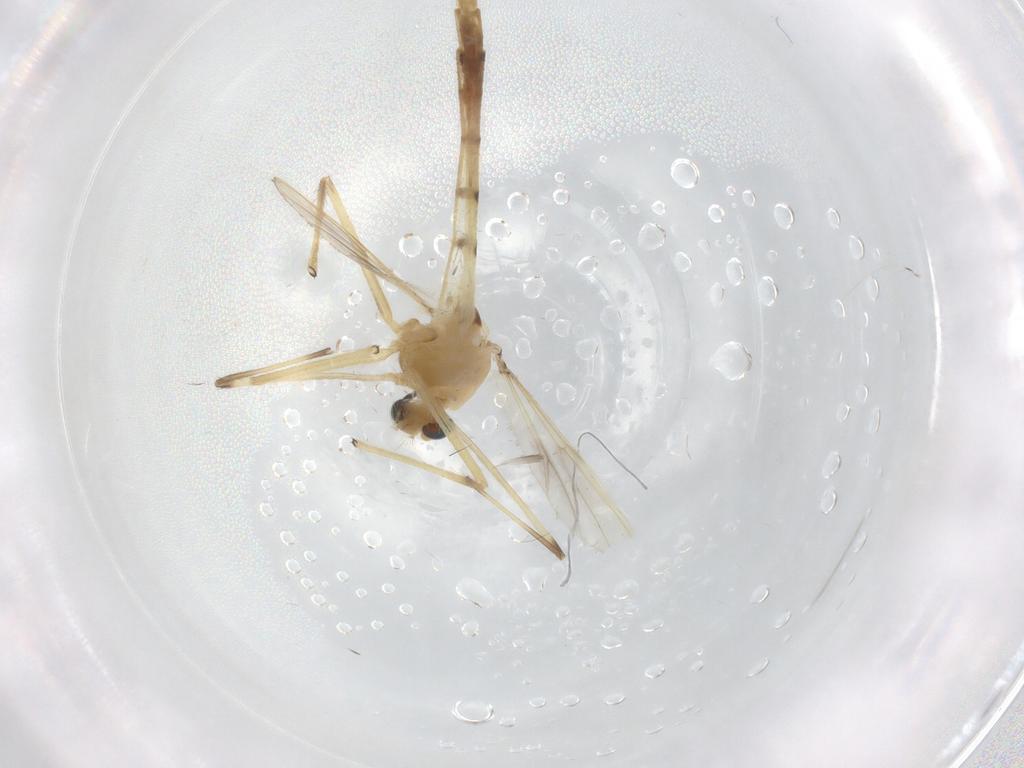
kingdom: Animalia
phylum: Arthropoda
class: Insecta
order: Diptera
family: Chironomidae
